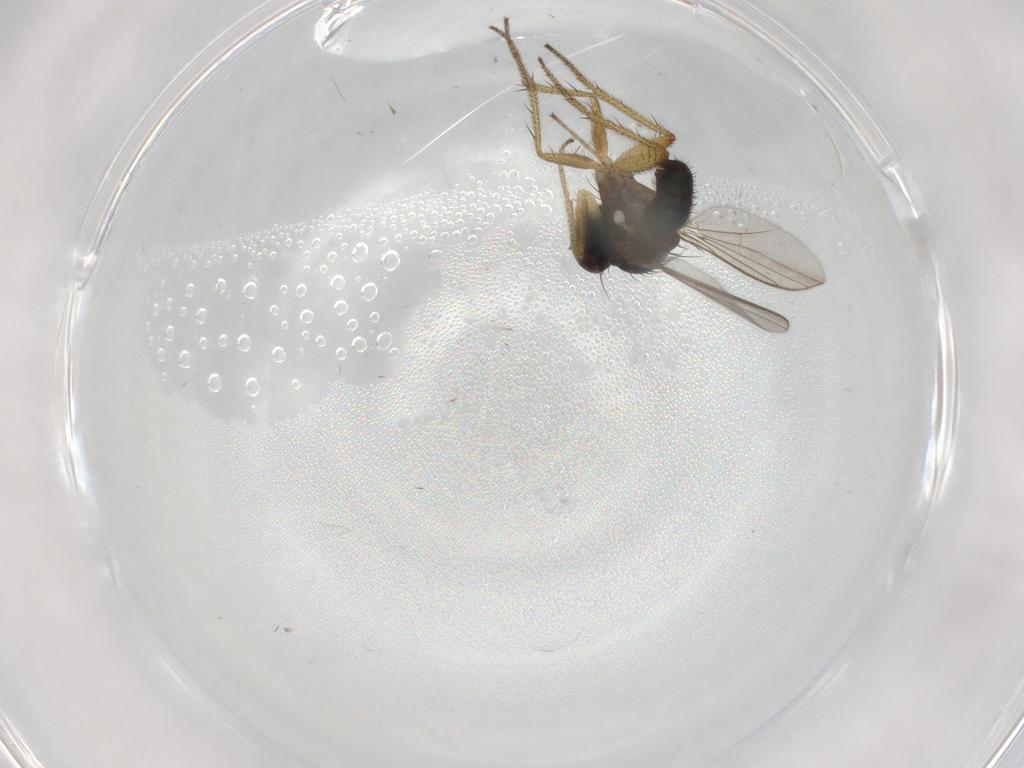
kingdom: Animalia
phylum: Arthropoda
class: Insecta
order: Diptera
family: Dolichopodidae
